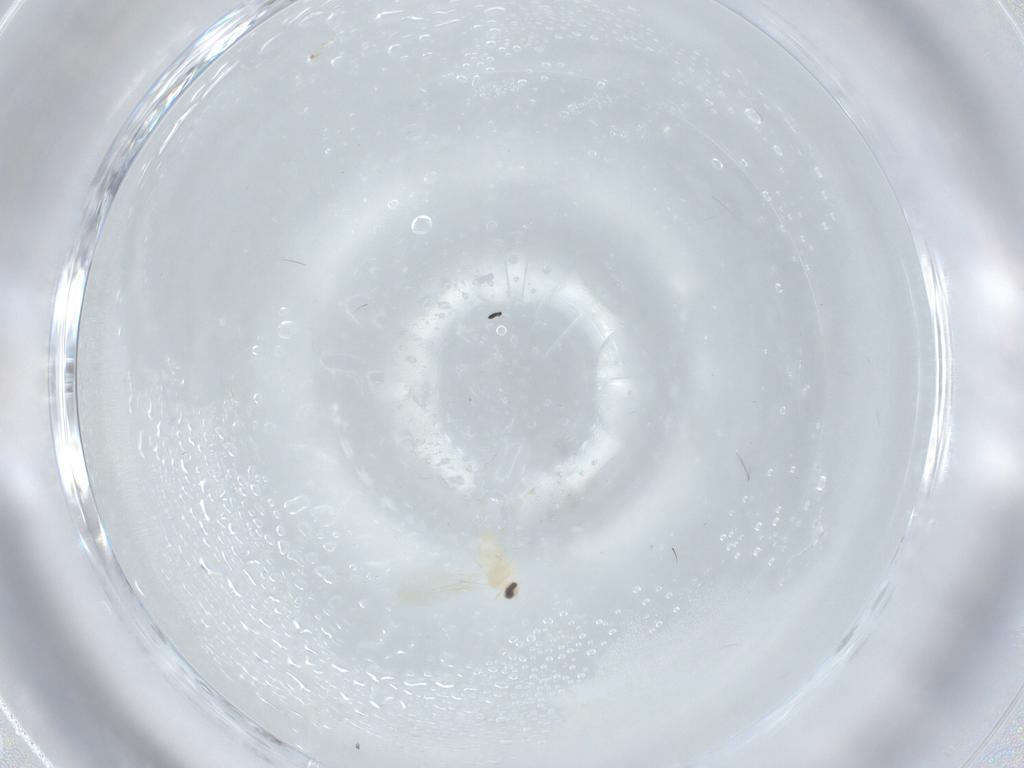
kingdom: Animalia
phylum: Arthropoda
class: Insecta
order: Diptera
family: Cecidomyiidae
